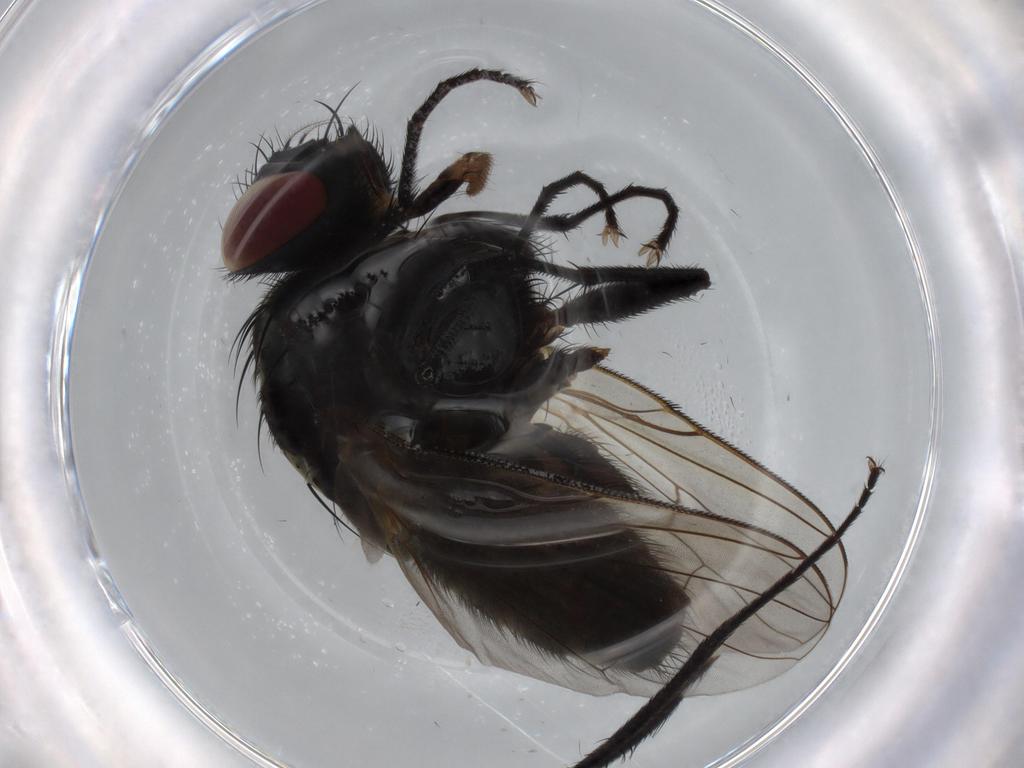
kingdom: Animalia
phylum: Arthropoda
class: Insecta
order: Diptera
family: Muscidae
